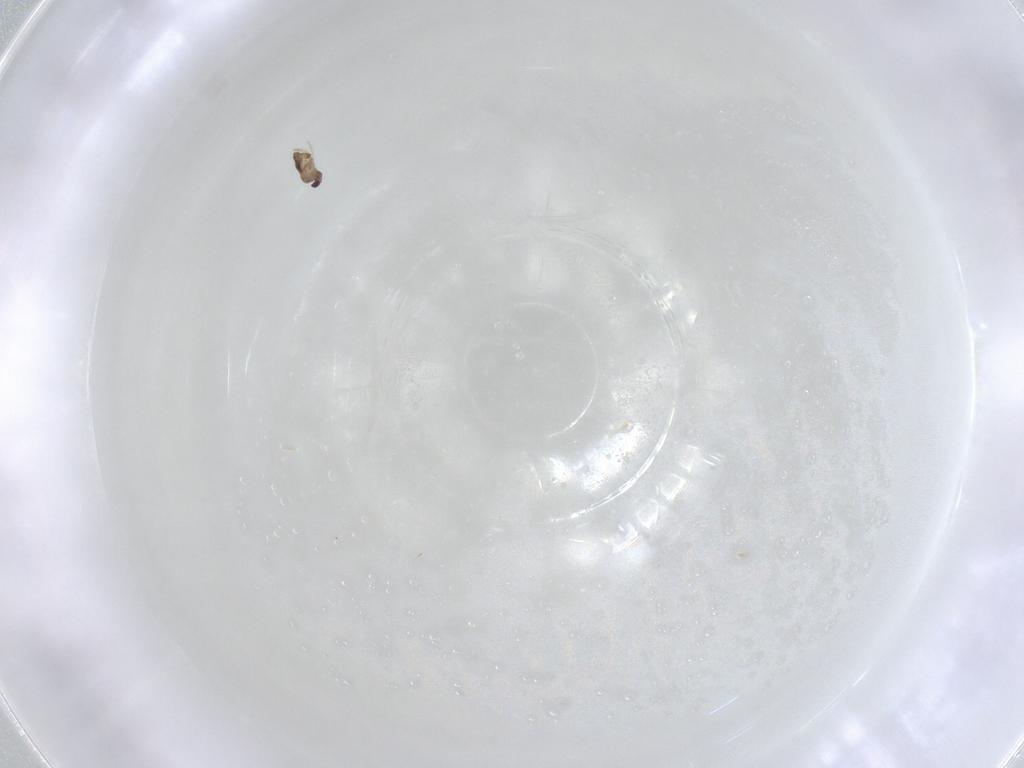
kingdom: Animalia
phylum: Arthropoda
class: Insecta
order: Hymenoptera
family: Mymaridae
